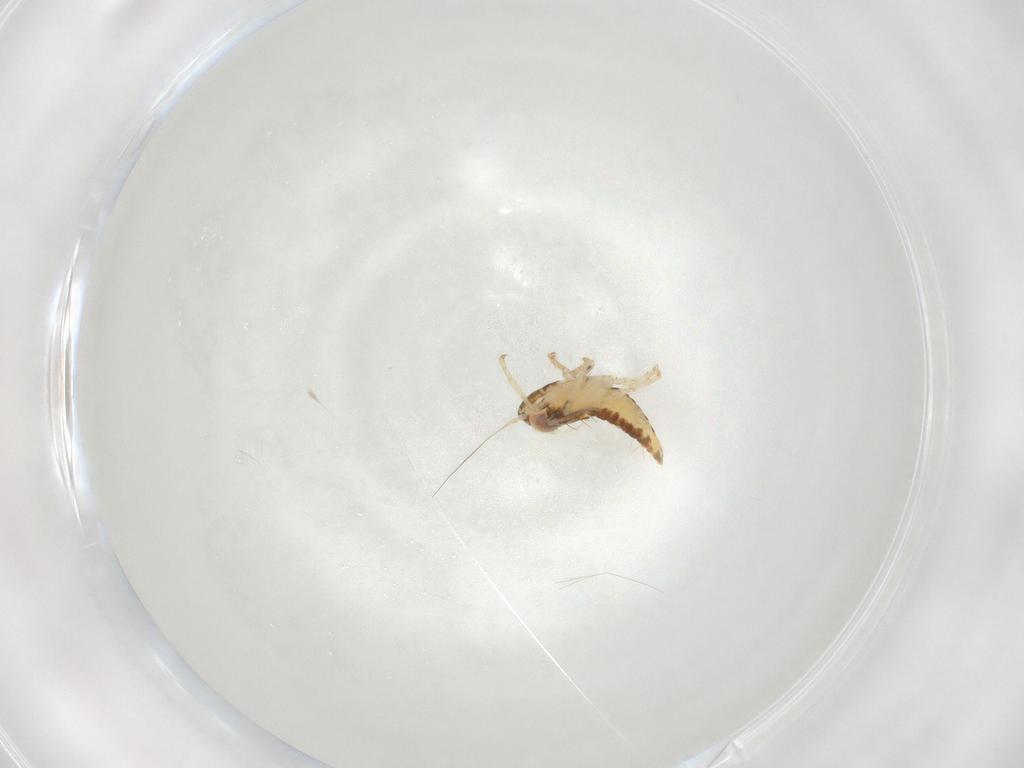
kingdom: Animalia
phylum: Arthropoda
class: Insecta
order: Hemiptera
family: Cicadellidae
